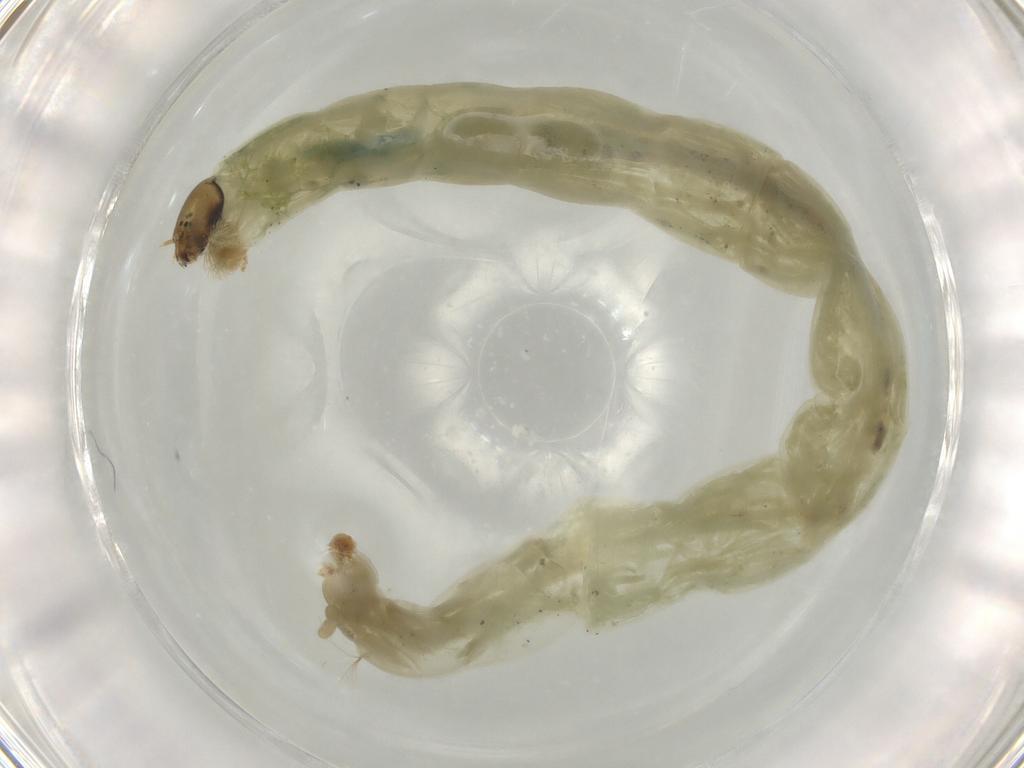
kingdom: Animalia
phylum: Arthropoda
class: Insecta
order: Diptera
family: Chironomidae
